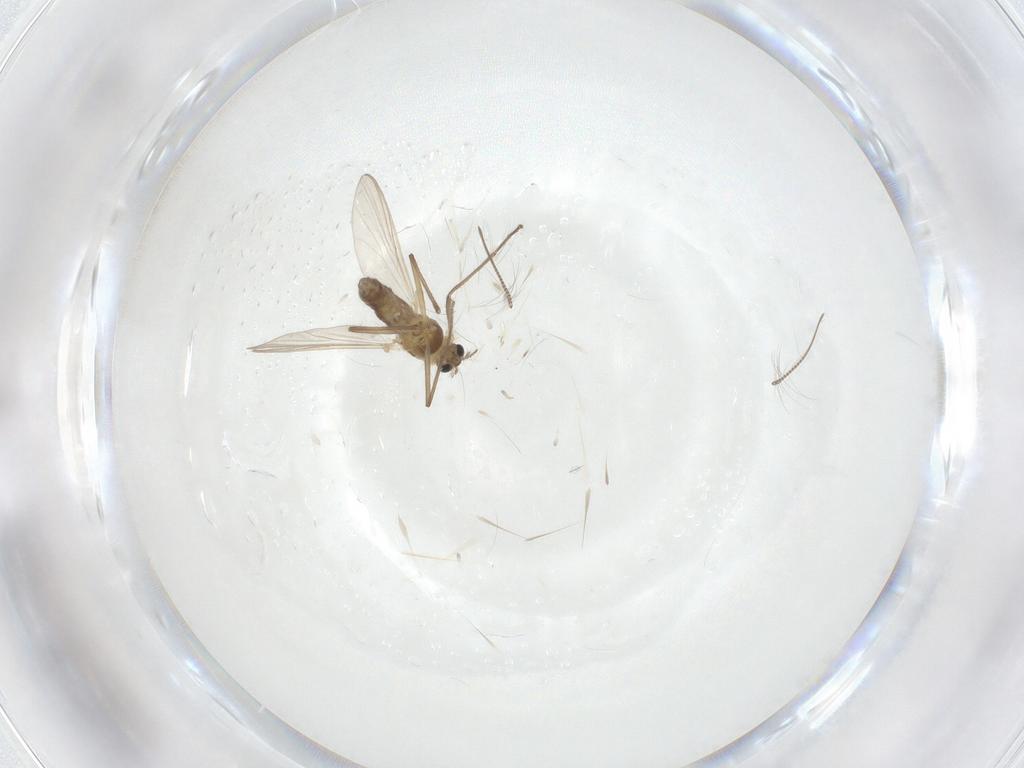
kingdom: Animalia
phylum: Arthropoda
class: Insecta
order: Diptera
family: Chironomidae
